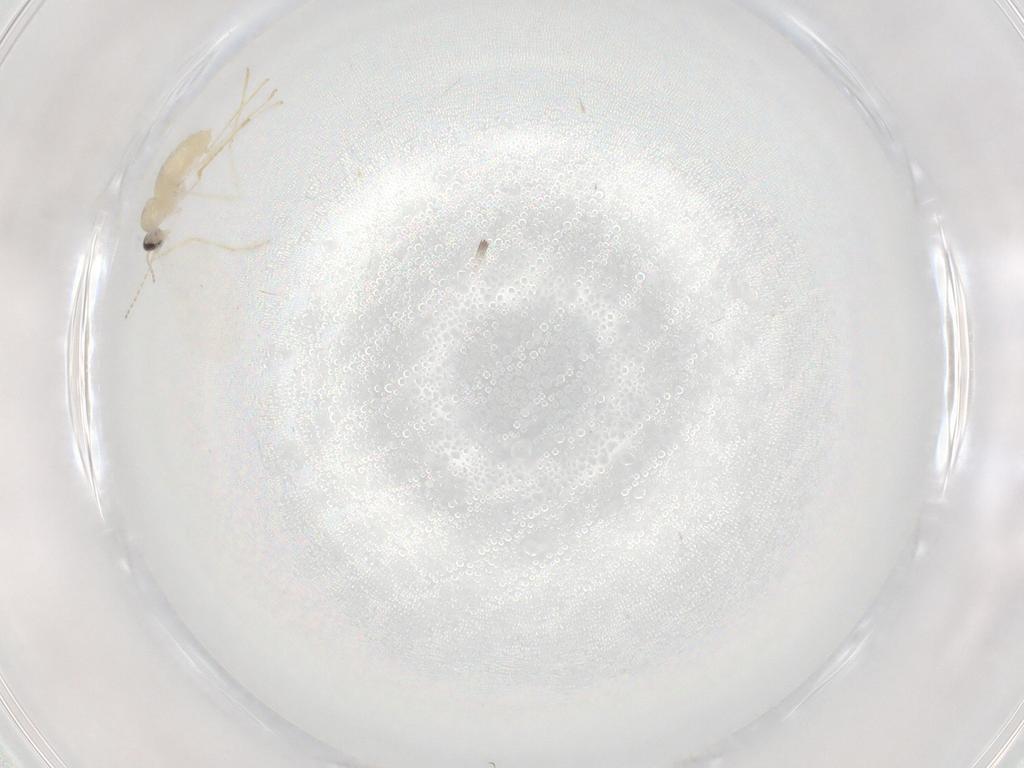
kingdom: Animalia
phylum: Arthropoda
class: Insecta
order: Diptera
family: Cecidomyiidae
